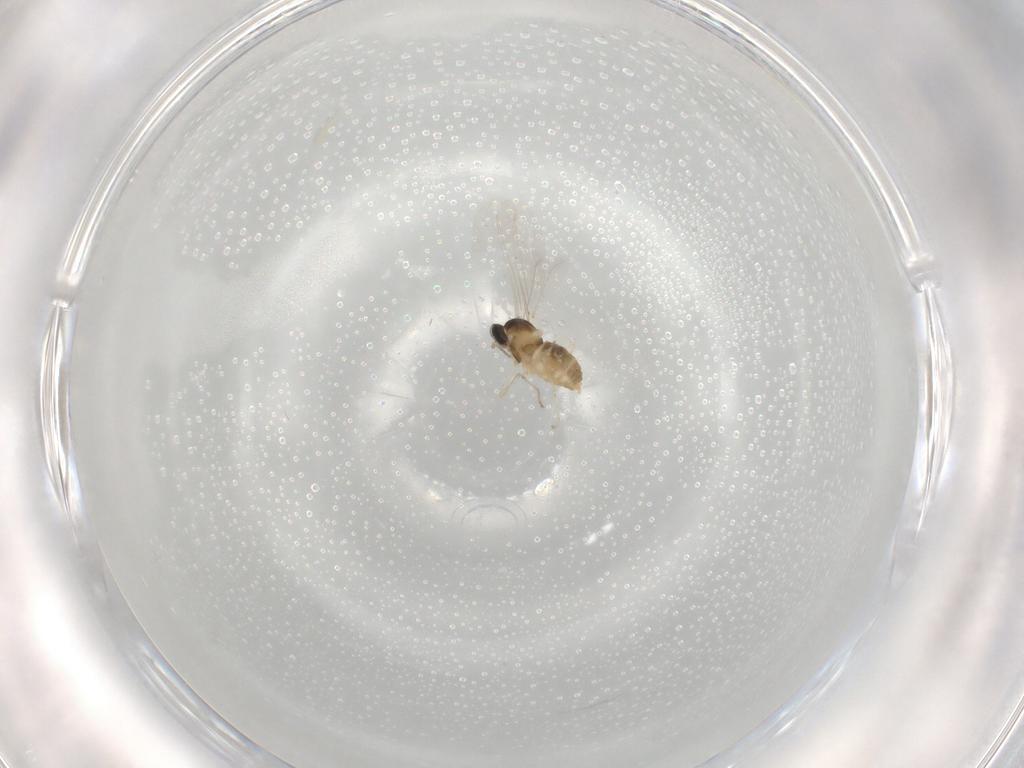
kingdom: Animalia
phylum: Arthropoda
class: Insecta
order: Diptera
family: Cecidomyiidae
